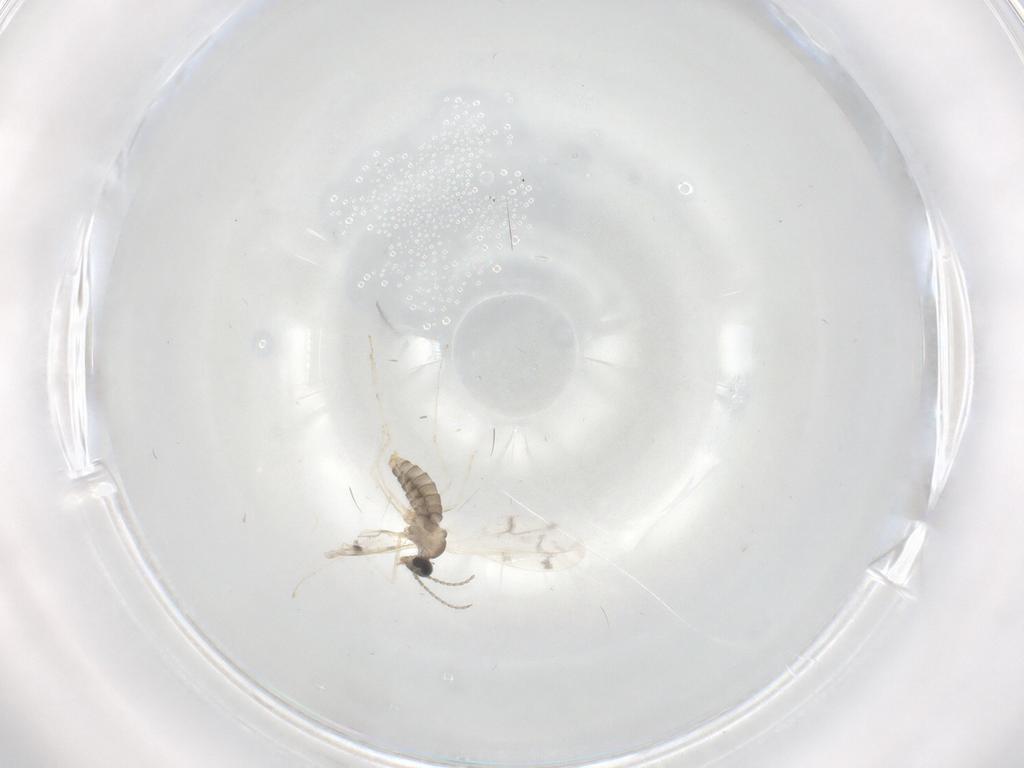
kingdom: Animalia
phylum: Arthropoda
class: Insecta
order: Diptera
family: Cecidomyiidae
